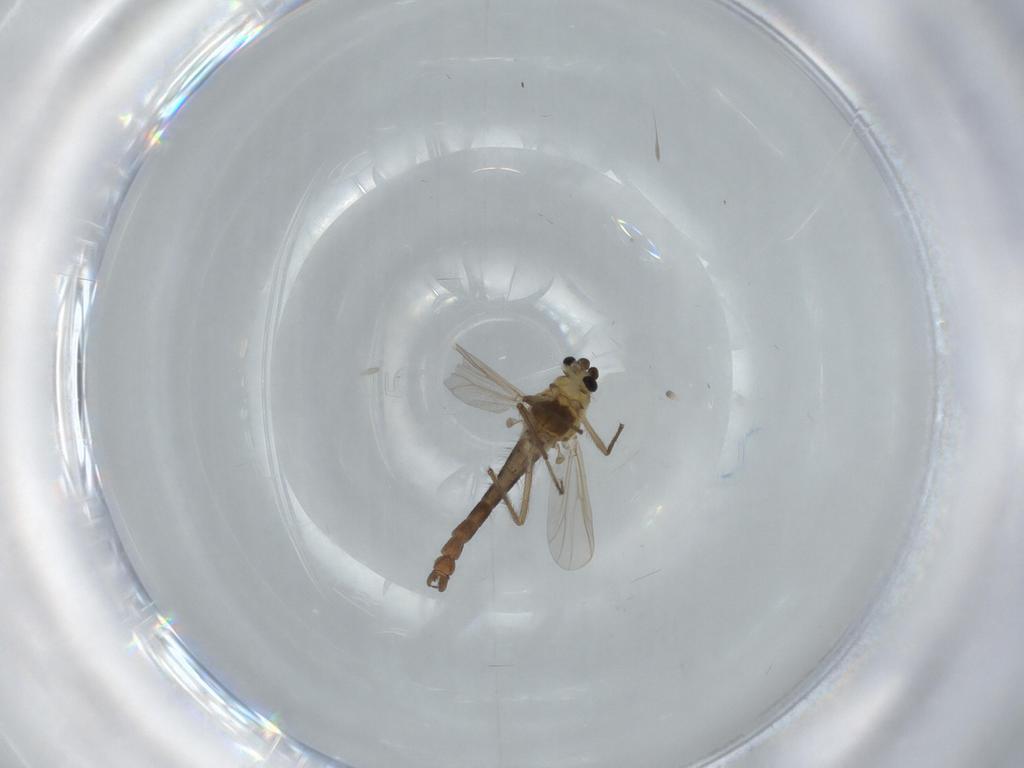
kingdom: Animalia
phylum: Arthropoda
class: Insecta
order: Diptera
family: Chironomidae
